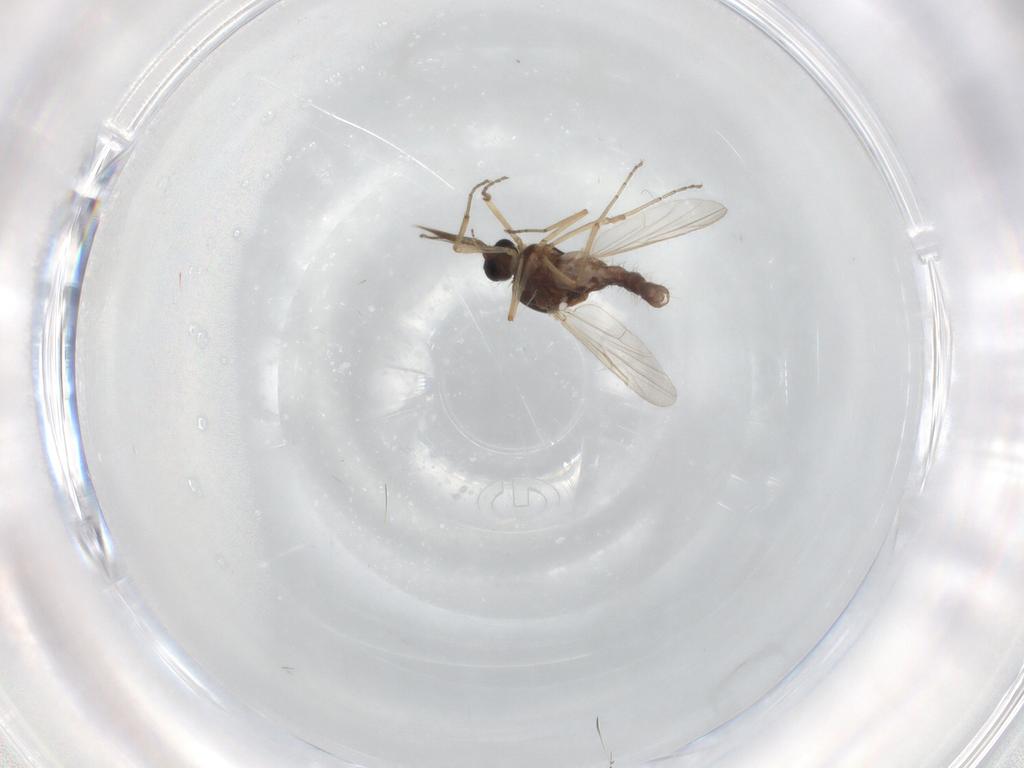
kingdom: Animalia
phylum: Arthropoda
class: Insecta
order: Diptera
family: Ceratopogonidae
